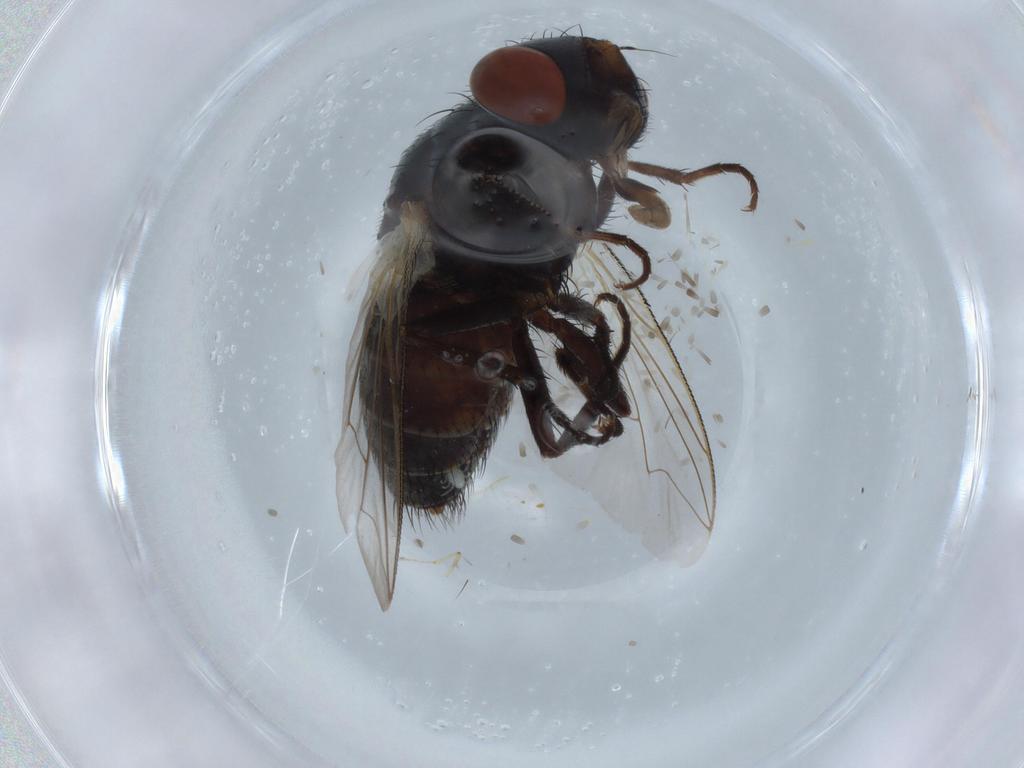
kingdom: Animalia
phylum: Arthropoda
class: Insecta
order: Diptera
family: Sarcophagidae
